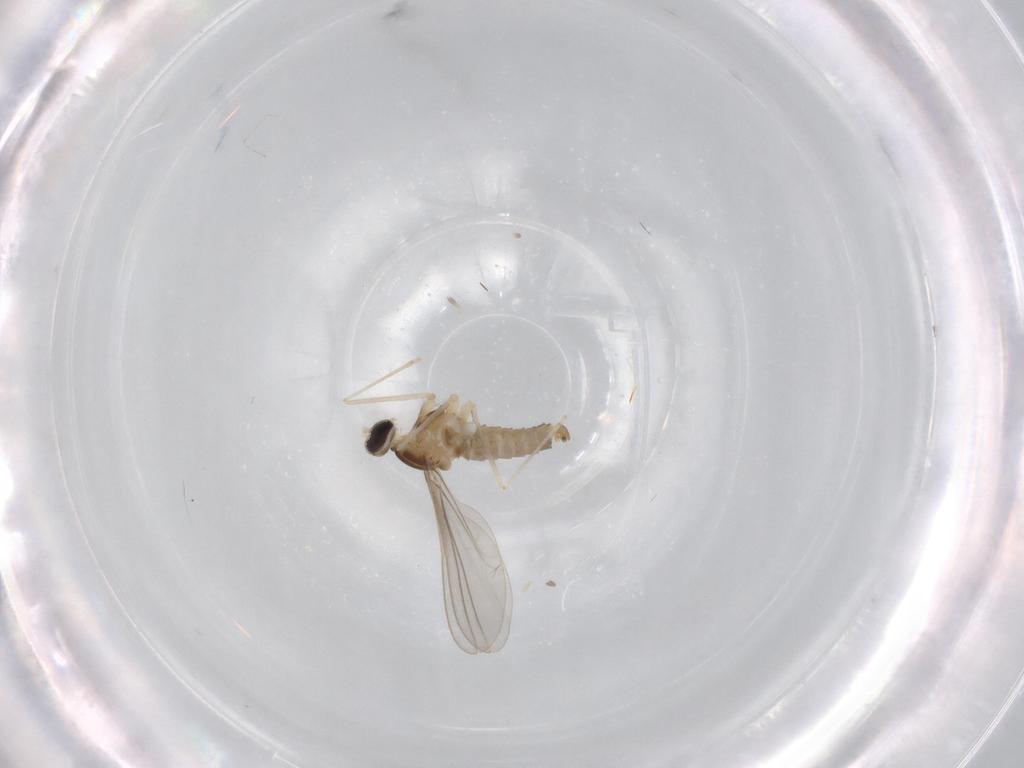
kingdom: Animalia
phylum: Arthropoda
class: Insecta
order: Diptera
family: Cecidomyiidae
